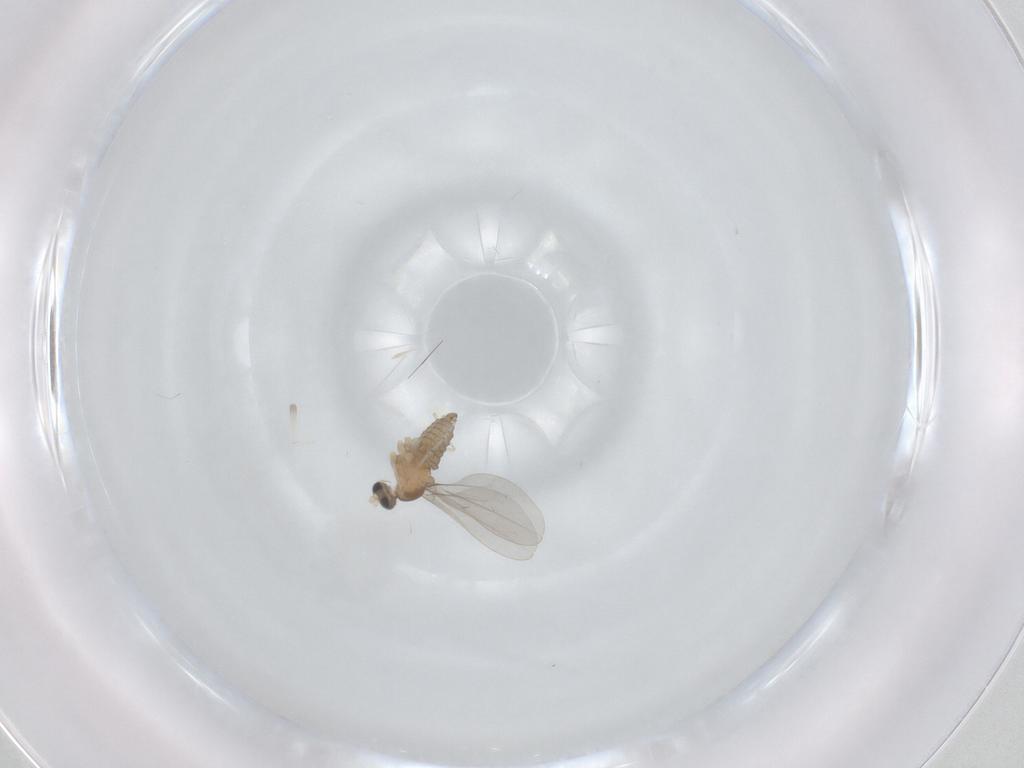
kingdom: Animalia
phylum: Arthropoda
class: Insecta
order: Diptera
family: Cecidomyiidae
